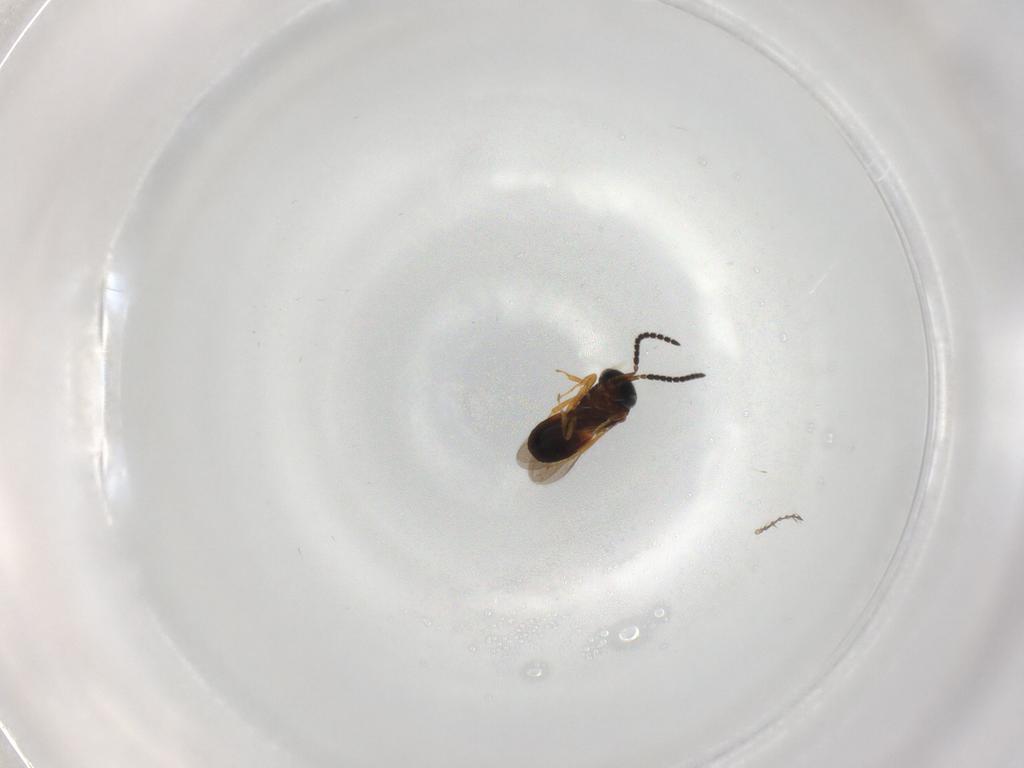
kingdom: Animalia
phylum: Arthropoda
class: Insecta
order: Hymenoptera
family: Scelionidae
